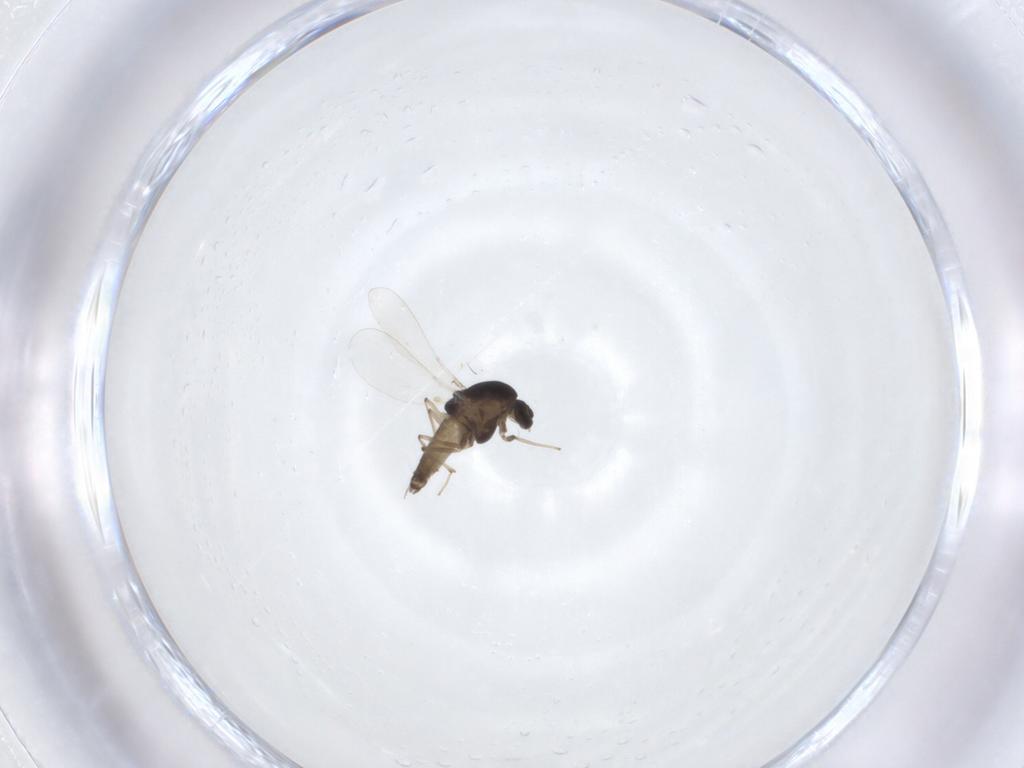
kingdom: Animalia
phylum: Arthropoda
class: Insecta
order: Diptera
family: Chironomidae
